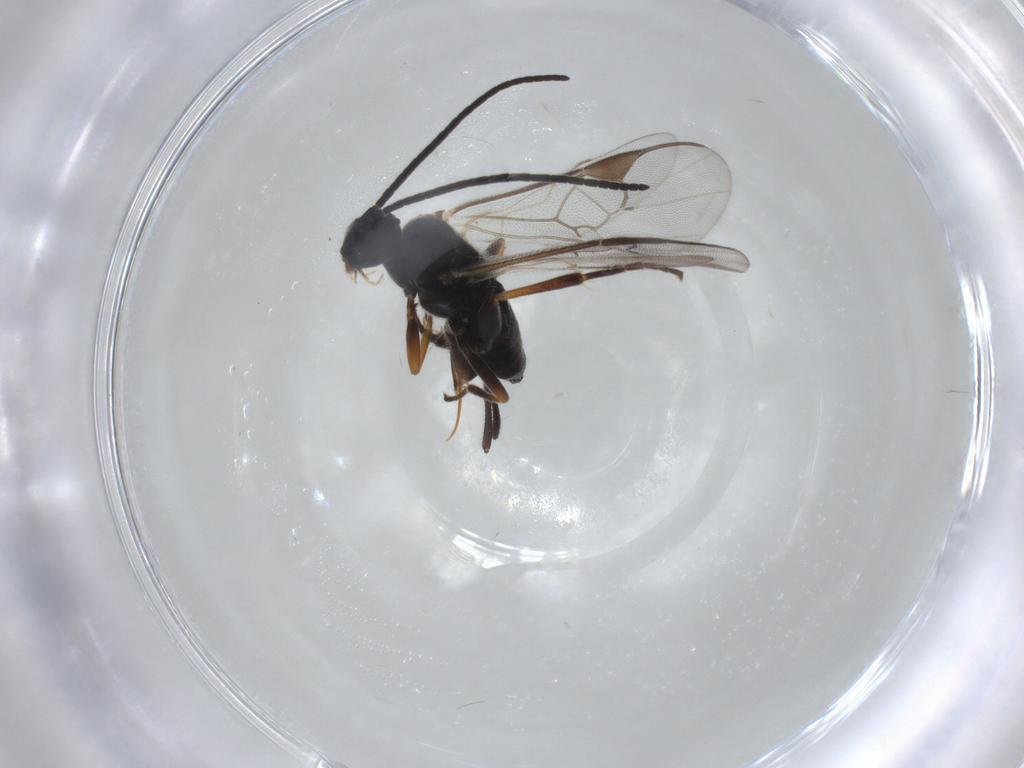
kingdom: Animalia
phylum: Arthropoda
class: Insecta
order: Hymenoptera
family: Braconidae
